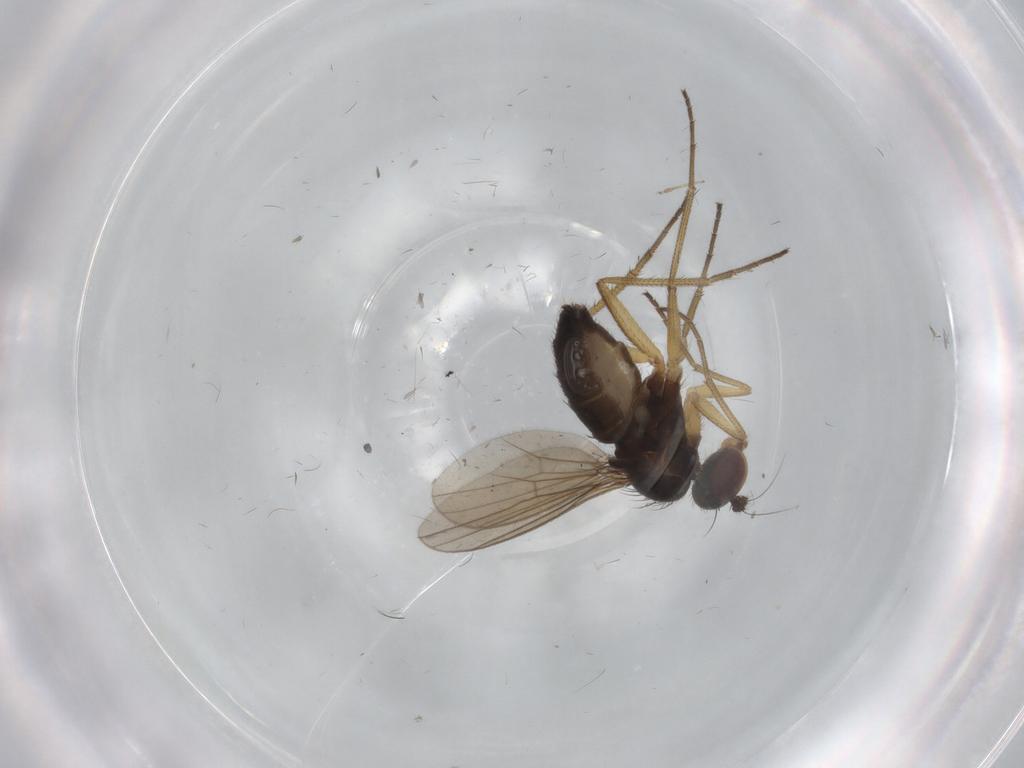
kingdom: Animalia
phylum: Arthropoda
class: Insecta
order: Diptera
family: Dolichopodidae
